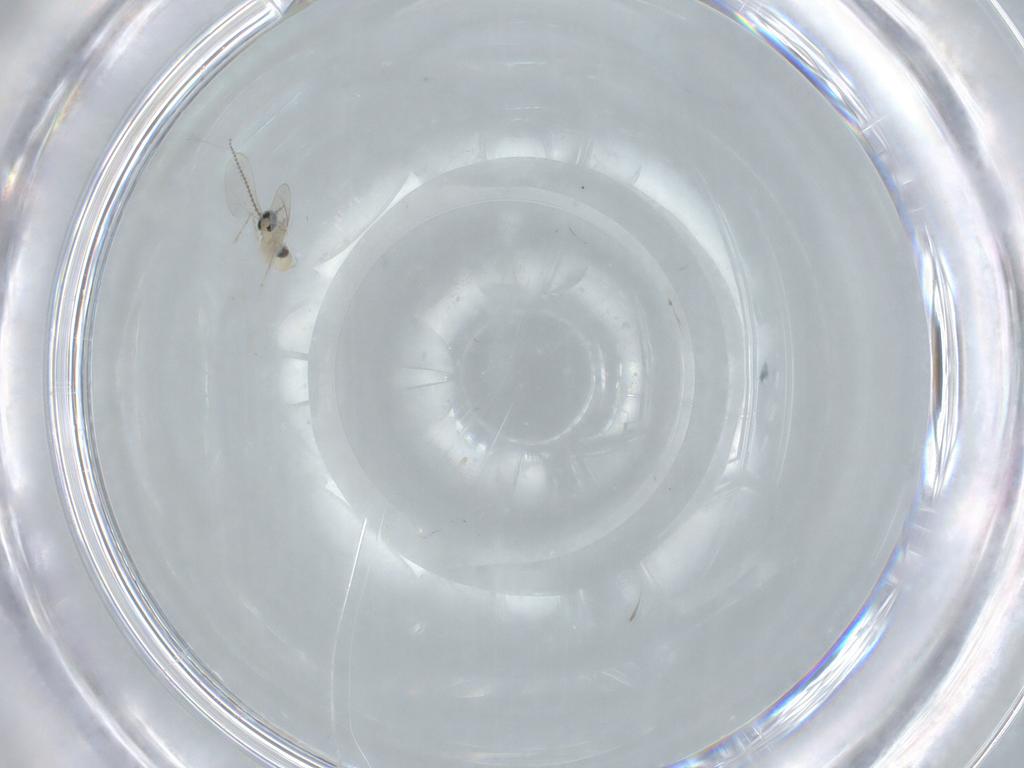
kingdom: Animalia
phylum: Arthropoda
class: Insecta
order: Diptera
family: Cecidomyiidae
